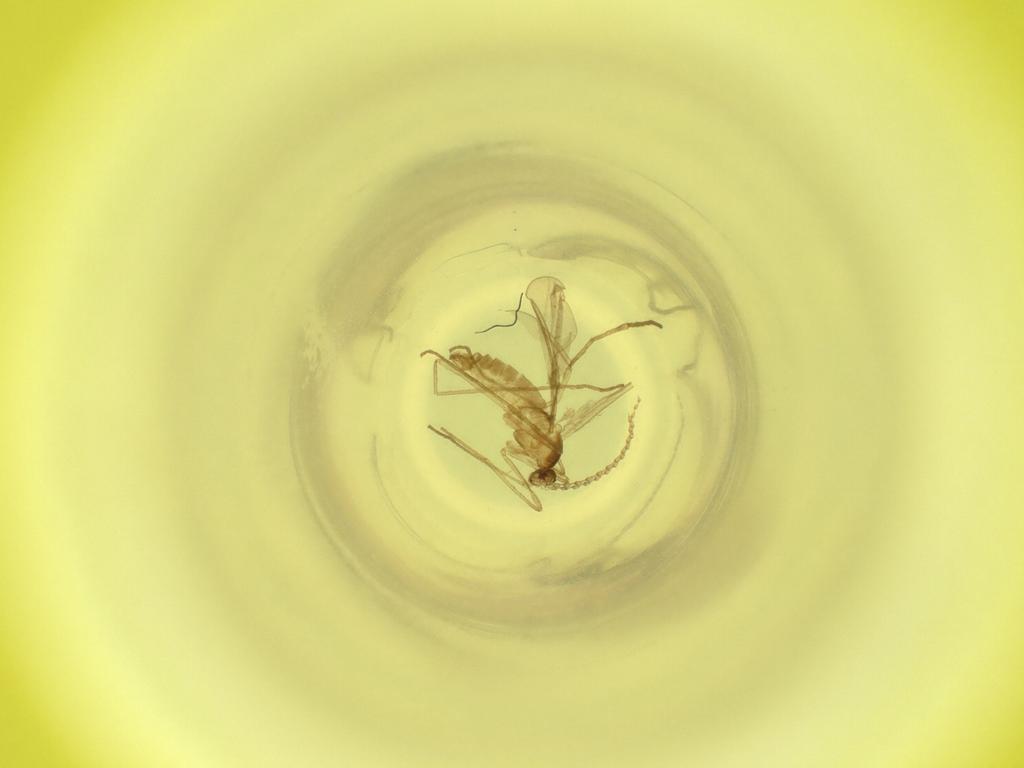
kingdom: Animalia
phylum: Arthropoda
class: Insecta
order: Diptera
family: Cecidomyiidae
